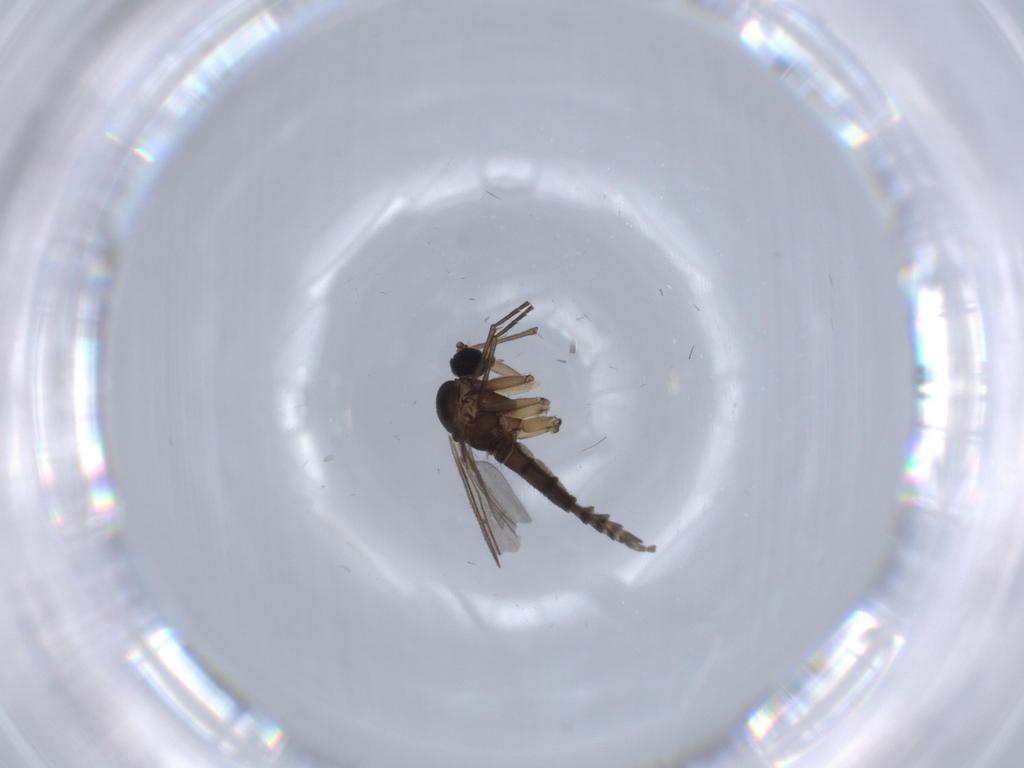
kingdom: Animalia
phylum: Arthropoda
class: Insecta
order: Diptera
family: Sciaridae
